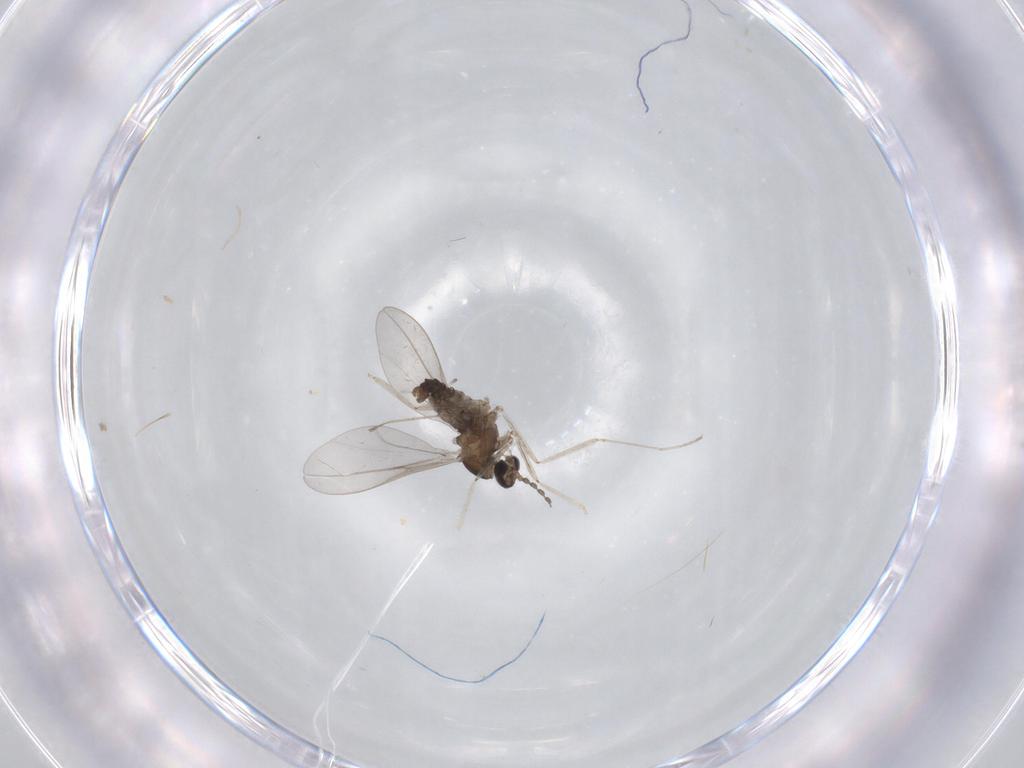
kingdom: Animalia
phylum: Arthropoda
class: Insecta
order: Diptera
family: Cecidomyiidae
